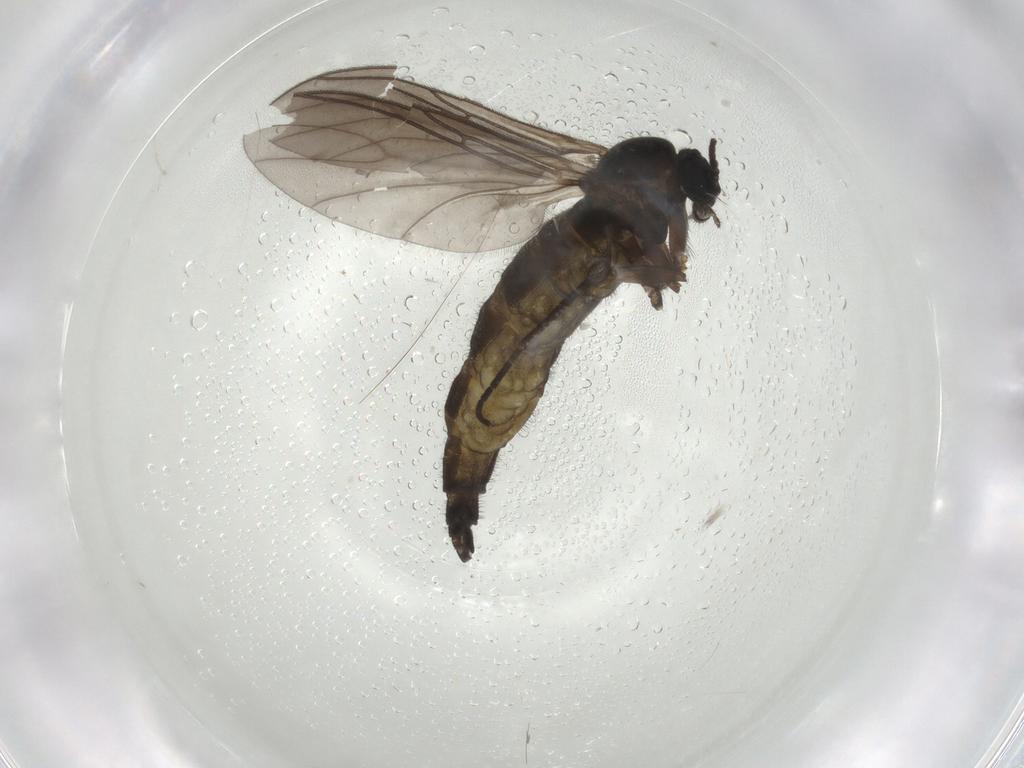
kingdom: Animalia
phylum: Arthropoda
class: Insecta
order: Diptera
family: Sciaridae
